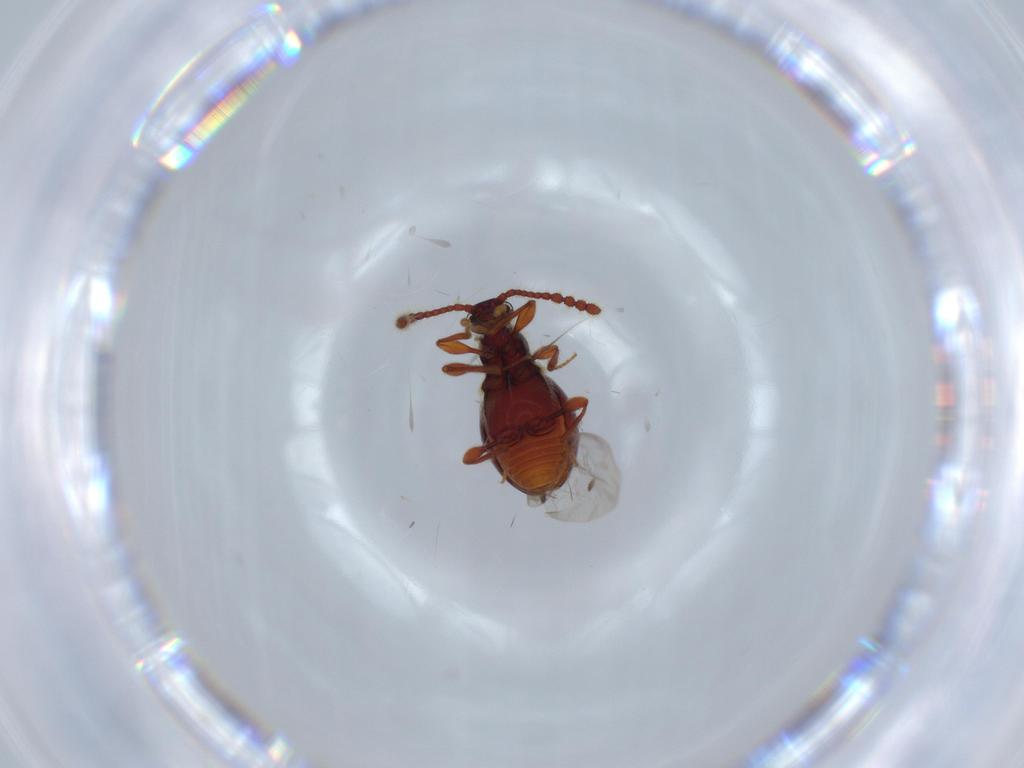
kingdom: Animalia
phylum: Arthropoda
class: Insecta
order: Coleoptera
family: Staphylinidae
